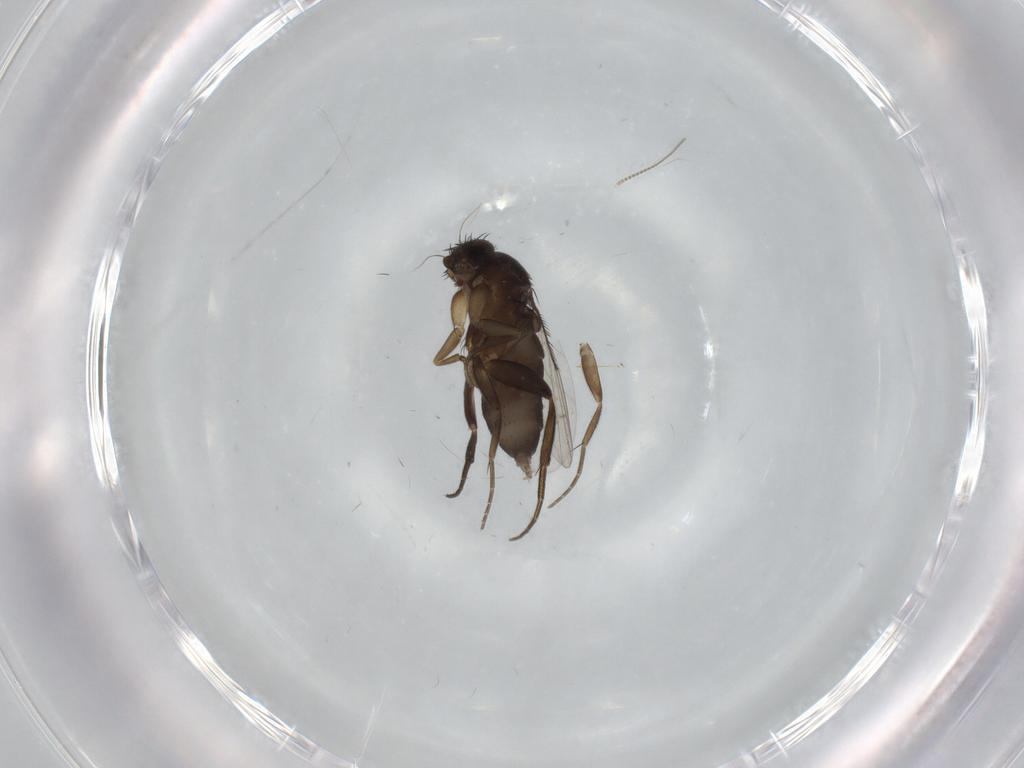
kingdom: Animalia
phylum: Arthropoda
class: Insecta
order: Diptera
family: Phoridae
